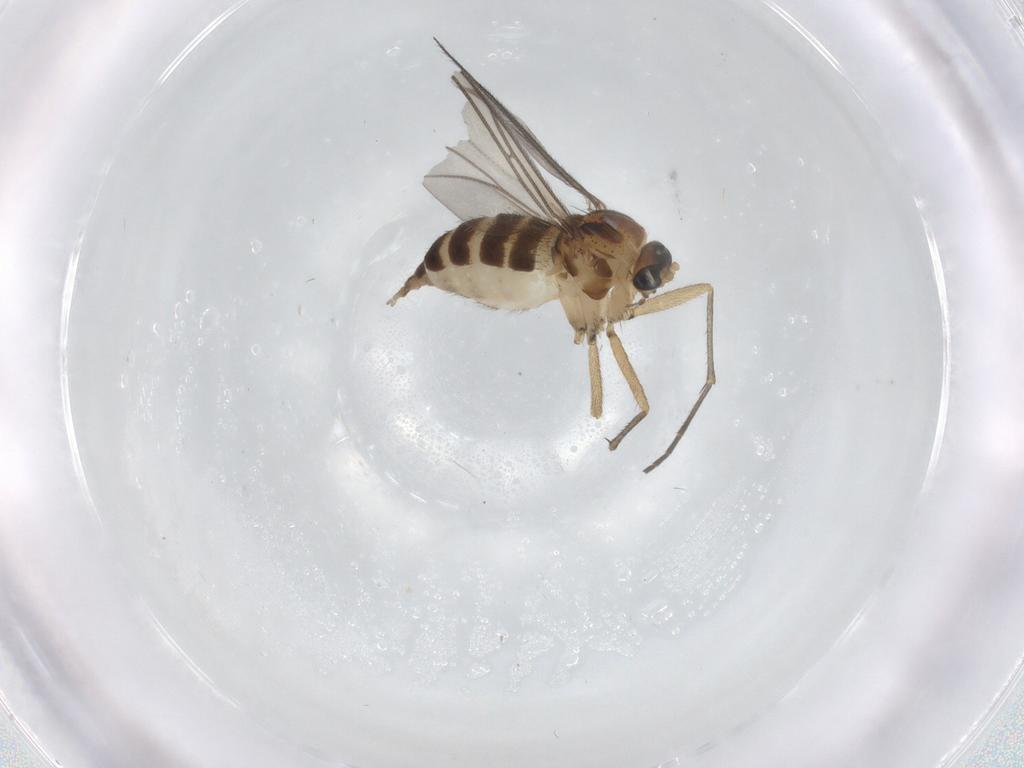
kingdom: Animalia
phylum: Arthropoda
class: Insecta
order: Diptera
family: Sciaridae
